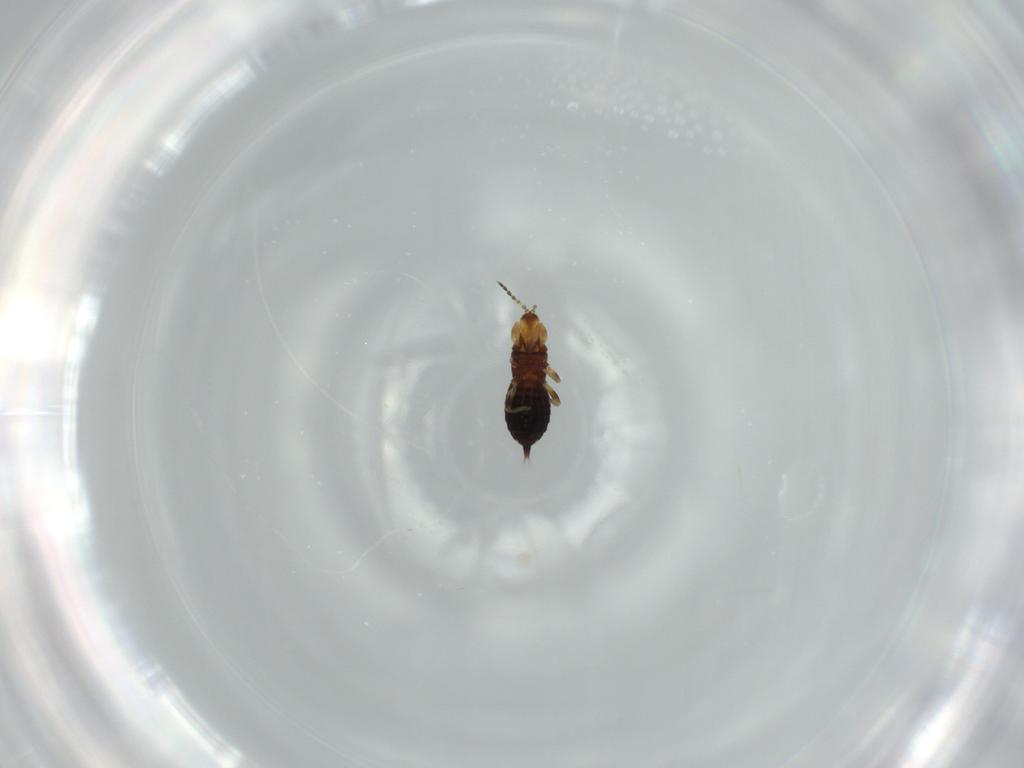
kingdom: Animalia
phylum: Arthropoda
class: Insecta
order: Thysanoptera
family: Phlaeothripidae
